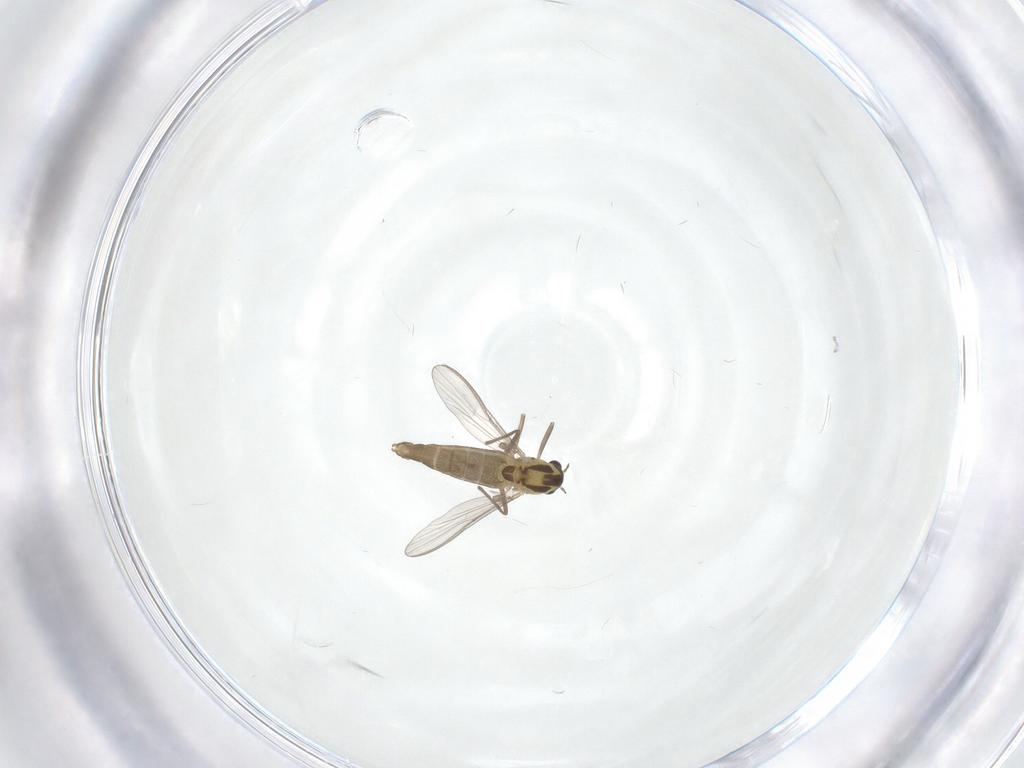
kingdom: Animalia
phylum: Arthropoda
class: Insecta
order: Diptera
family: Chironomidae
